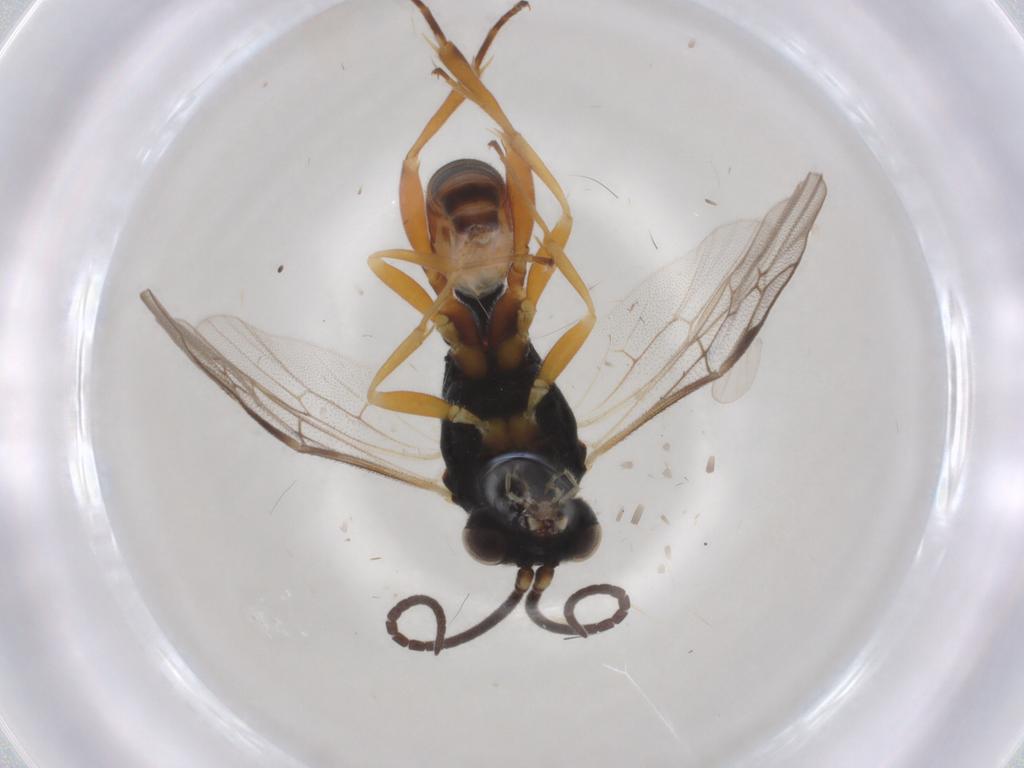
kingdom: Animalia
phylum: Arthropoda
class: Insecta
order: Hymenoptera
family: Ichneumonidae
